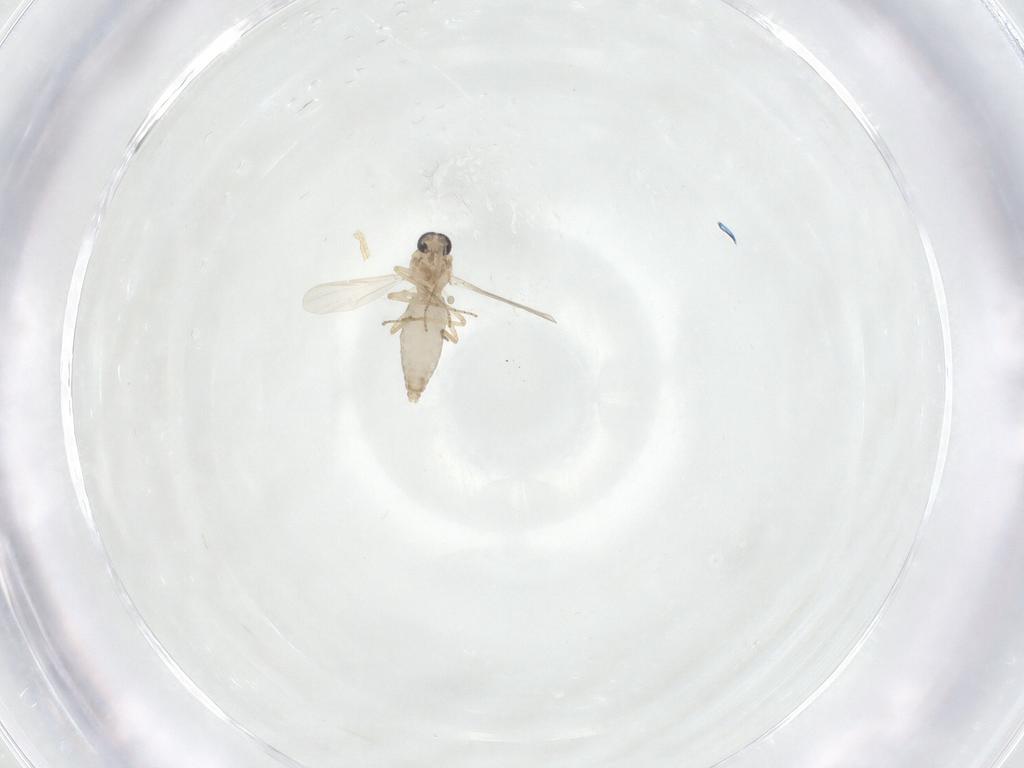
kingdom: Animalia
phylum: Arthropoda
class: Insecta
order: Diptera
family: Ceratopogonidae
